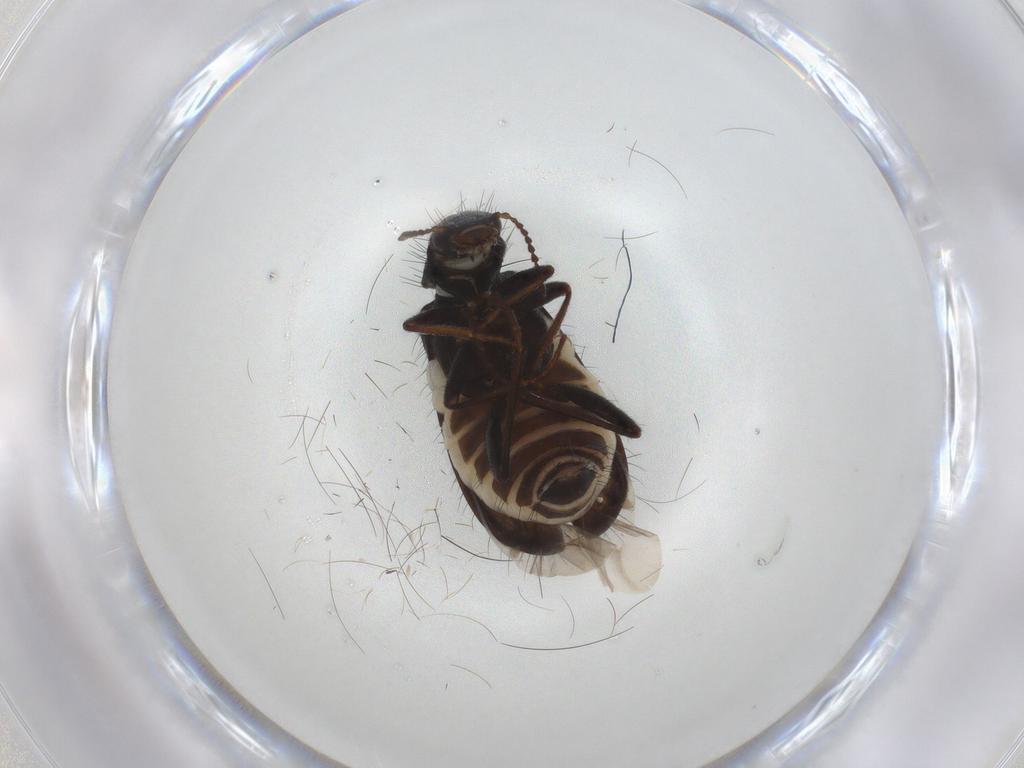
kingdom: Animalia
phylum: Arthropoda
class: Insecta
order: Coleoptera
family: Melyridae
